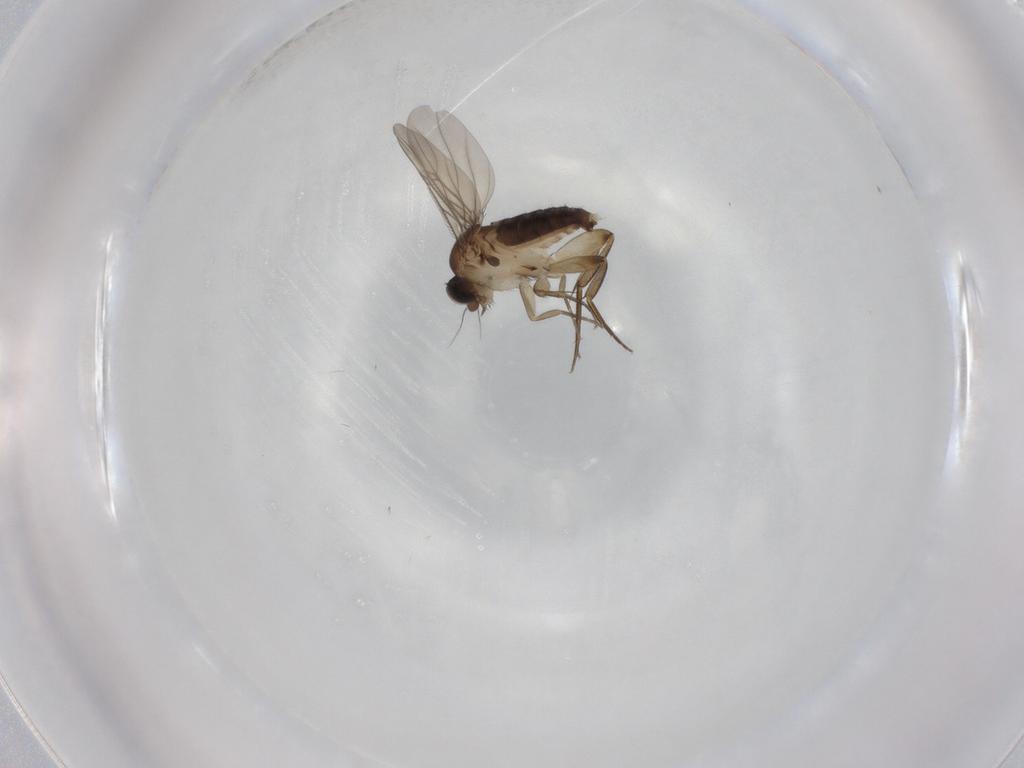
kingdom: Animalia
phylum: Arthropoda
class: Insecta
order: Diptera
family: Phoridae
